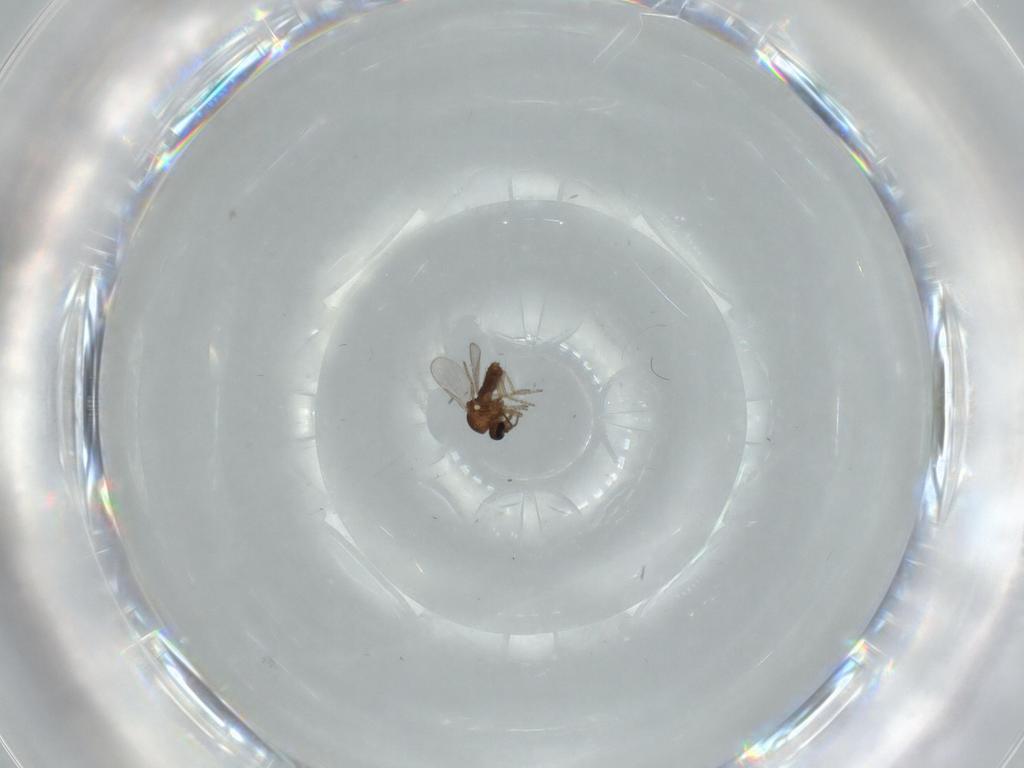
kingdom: Animalia
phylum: Arthropoda
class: Insecta
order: Diptera
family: Ceratopogonidae
